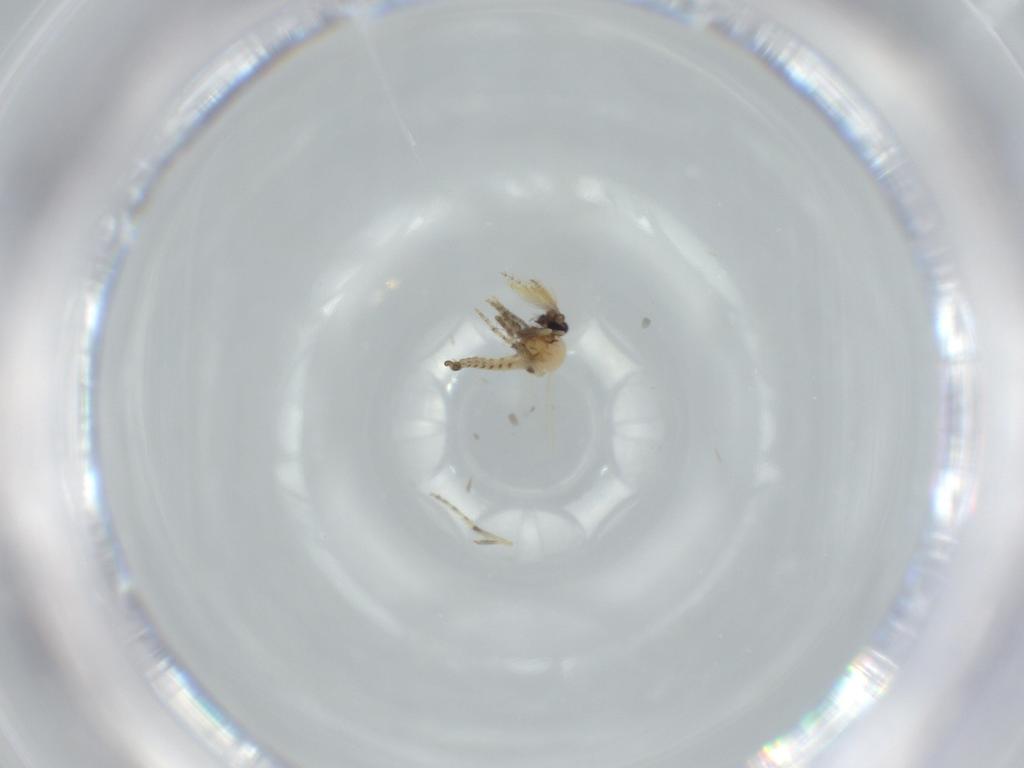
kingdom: Animalia
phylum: Arthropoda
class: Insecta
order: Diptera
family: Ceratopogonidae
